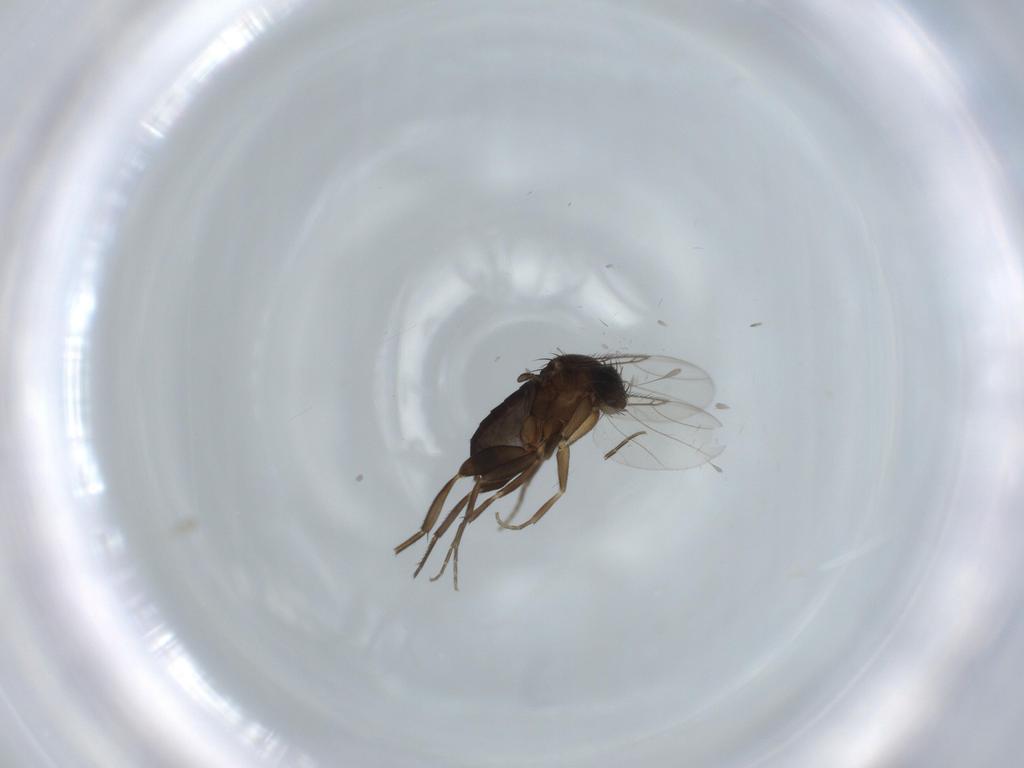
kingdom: Animalia
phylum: Arthropoda
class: Insecta
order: Diptera
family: Phoridae
